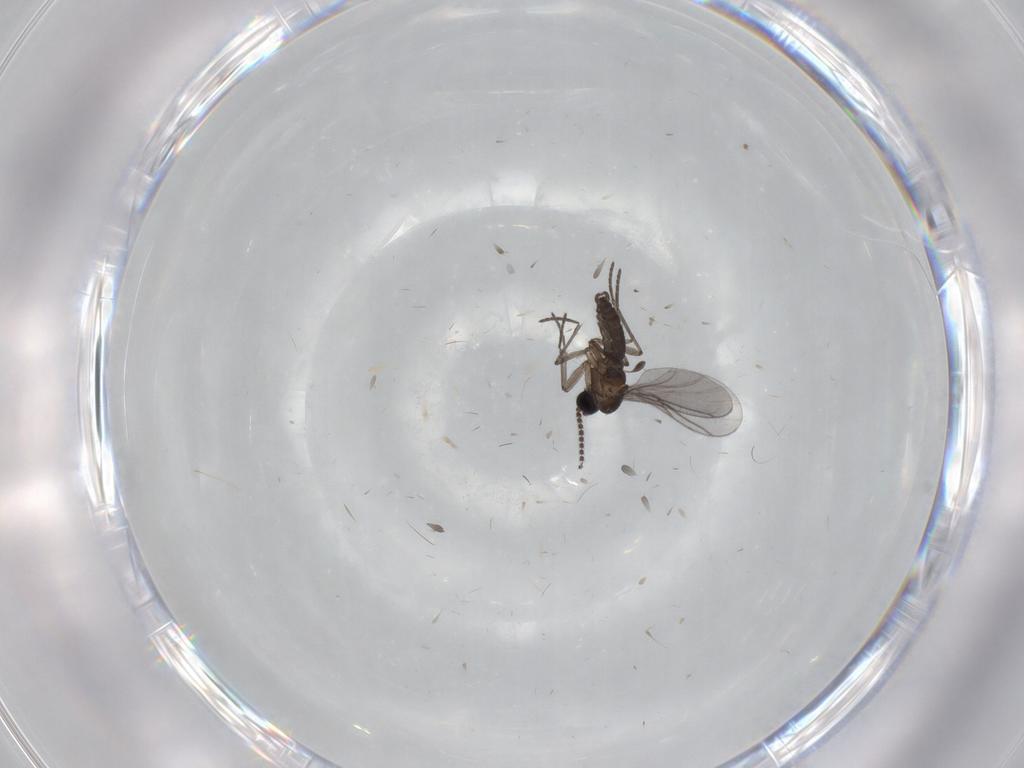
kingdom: Animalia
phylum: Arthropoda
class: Insecta
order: Diptera
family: Sciaridae
